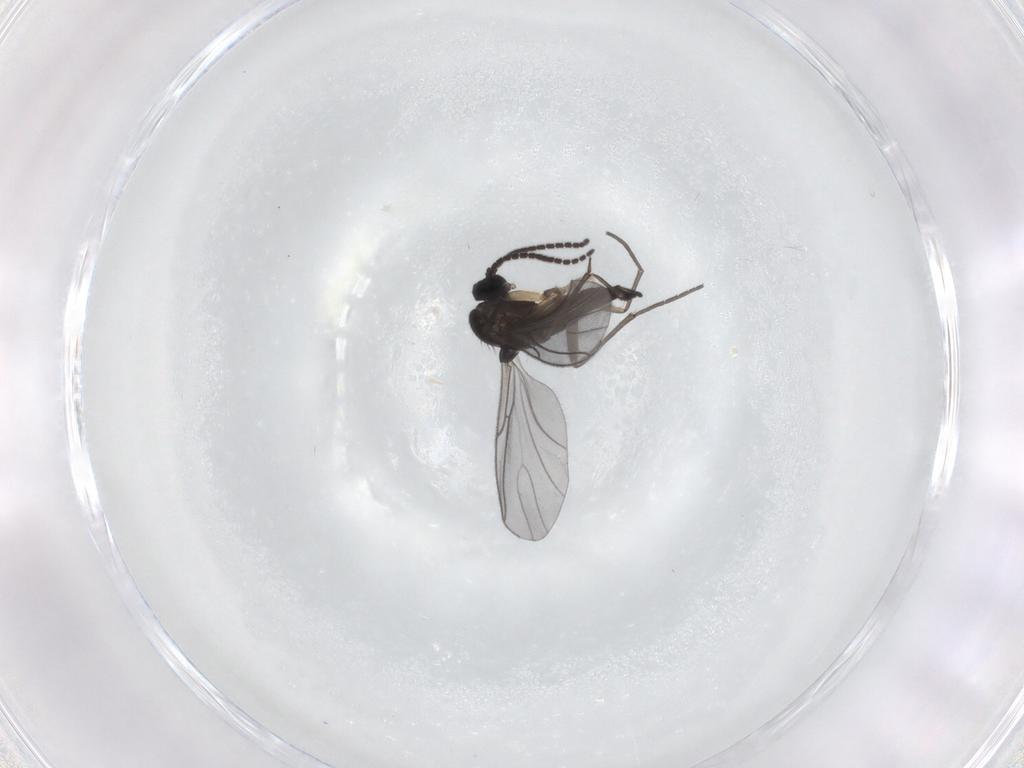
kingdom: Animalia
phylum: Arthropoda
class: Insecta
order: Diptera
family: Sciaridae
